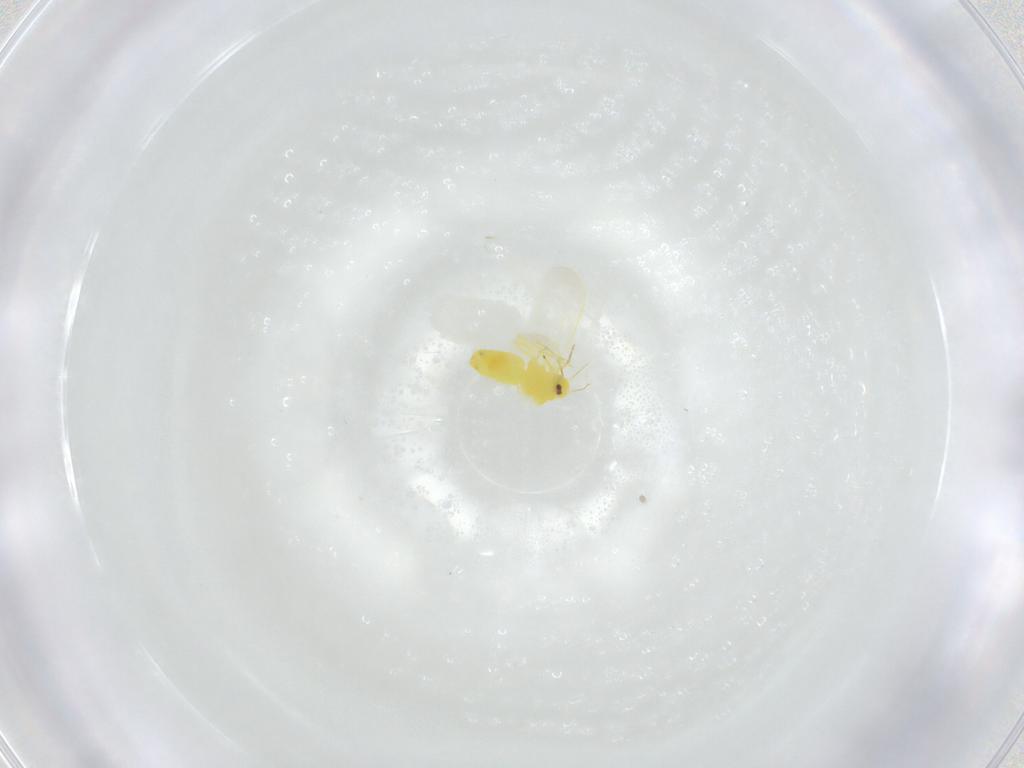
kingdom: Animalia
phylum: Arthropoda
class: Insecta
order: Hemiptera
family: Aleyrodidae
